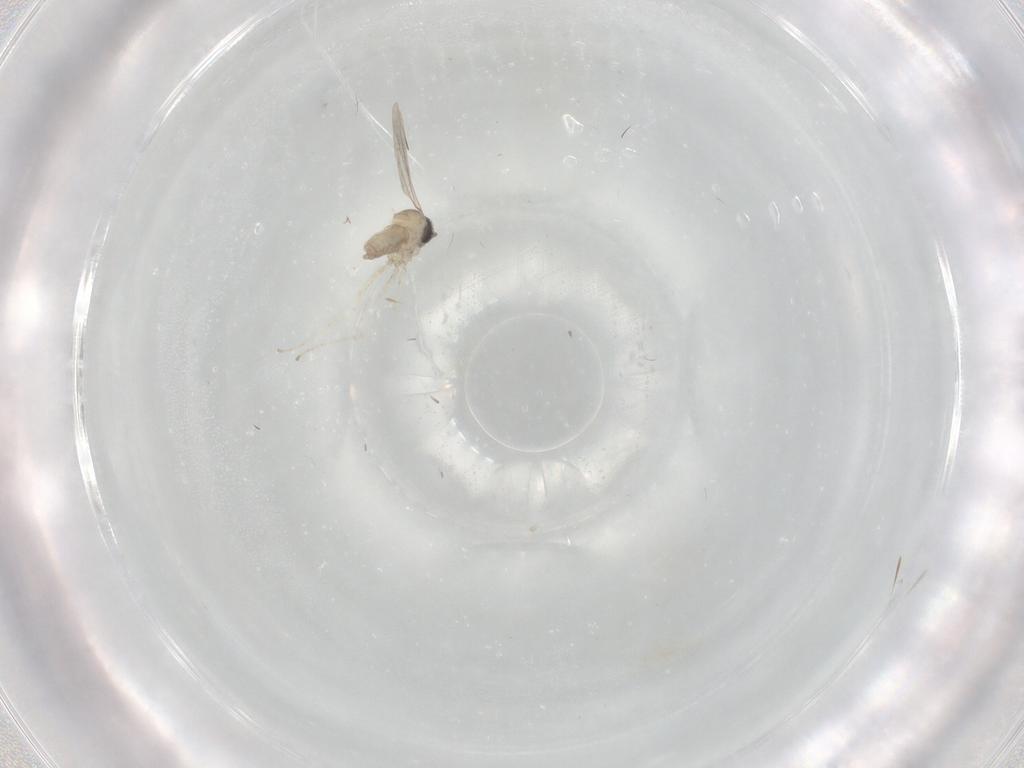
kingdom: Animalia
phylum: Arthropoda
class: Insecta
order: Diptera
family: Cecidomyiidae
